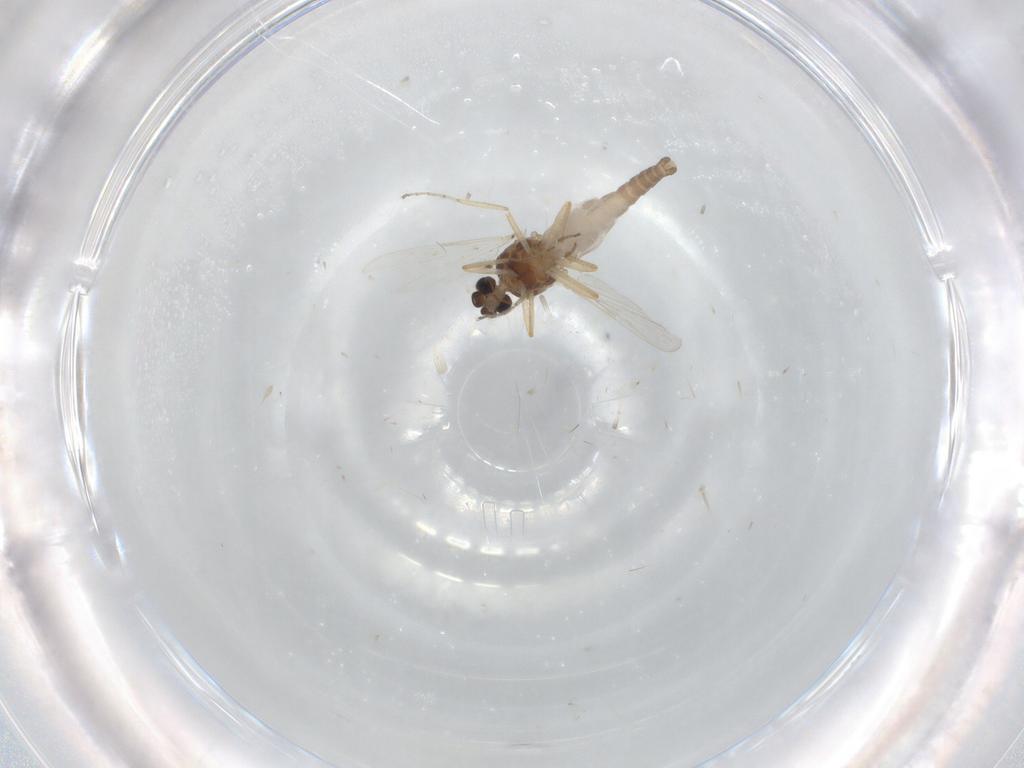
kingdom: Animalia
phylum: Arthropoda
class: Insecta
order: Diptera
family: Ceratopogonidae
